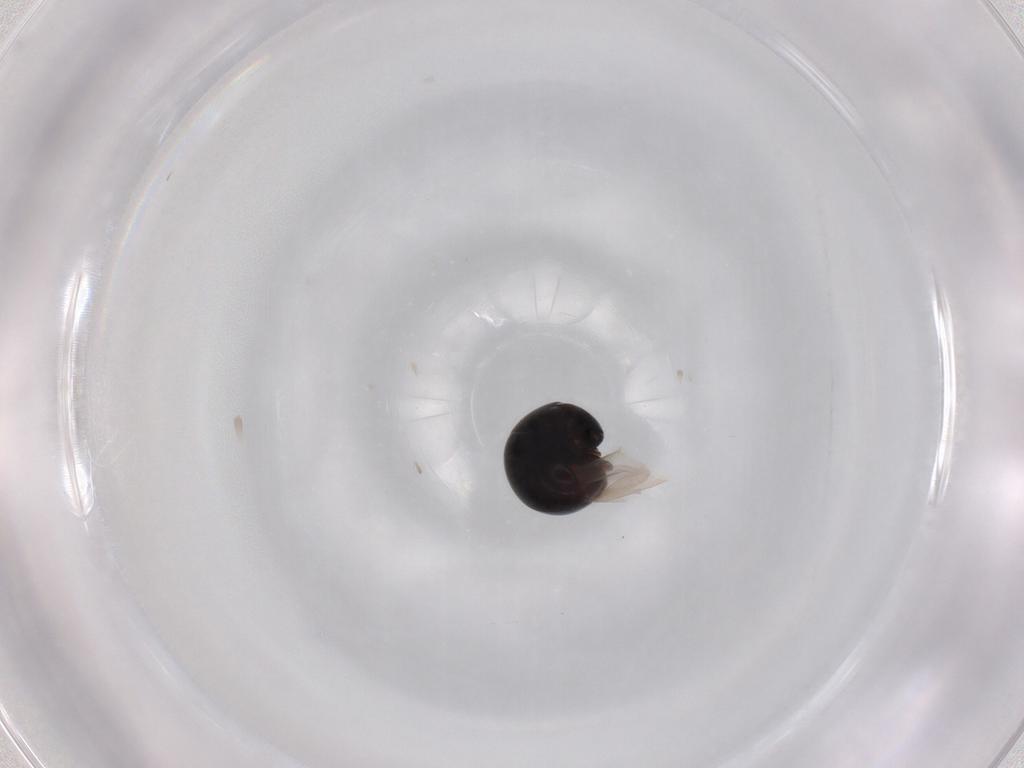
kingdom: Animalia
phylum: Arthropoda
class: Insecta
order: Coleoptera
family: Cybocephalidae
